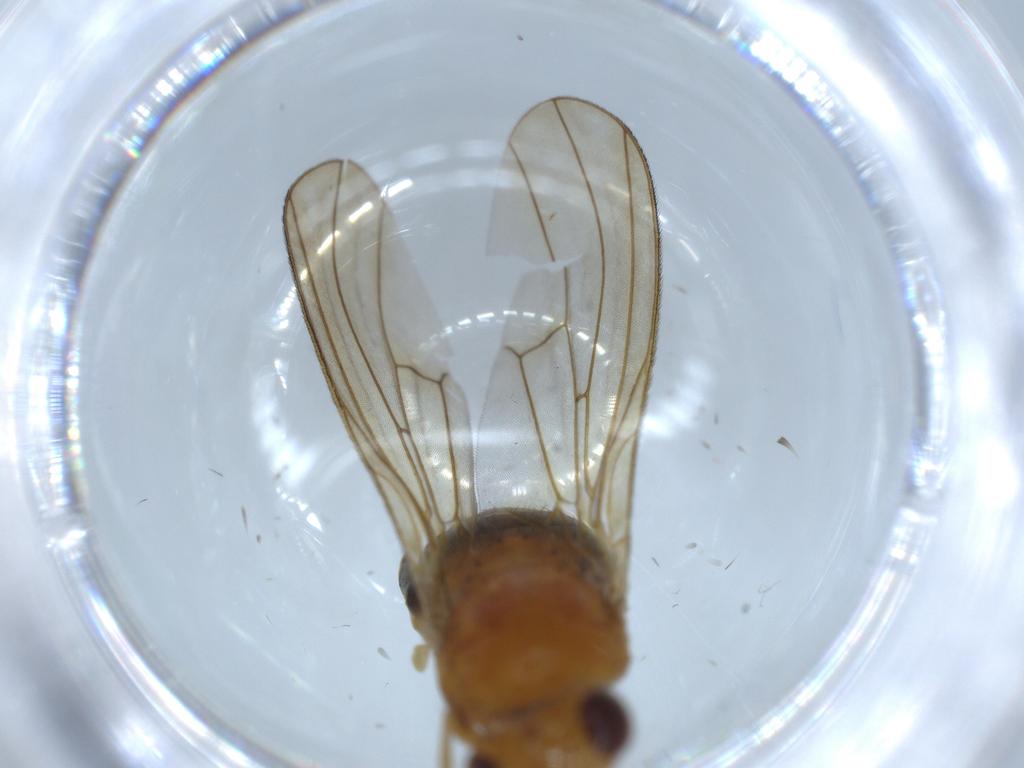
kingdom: Animalia
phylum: Arthropoda
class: Insecta
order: Diptera
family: Lauxaniidae
